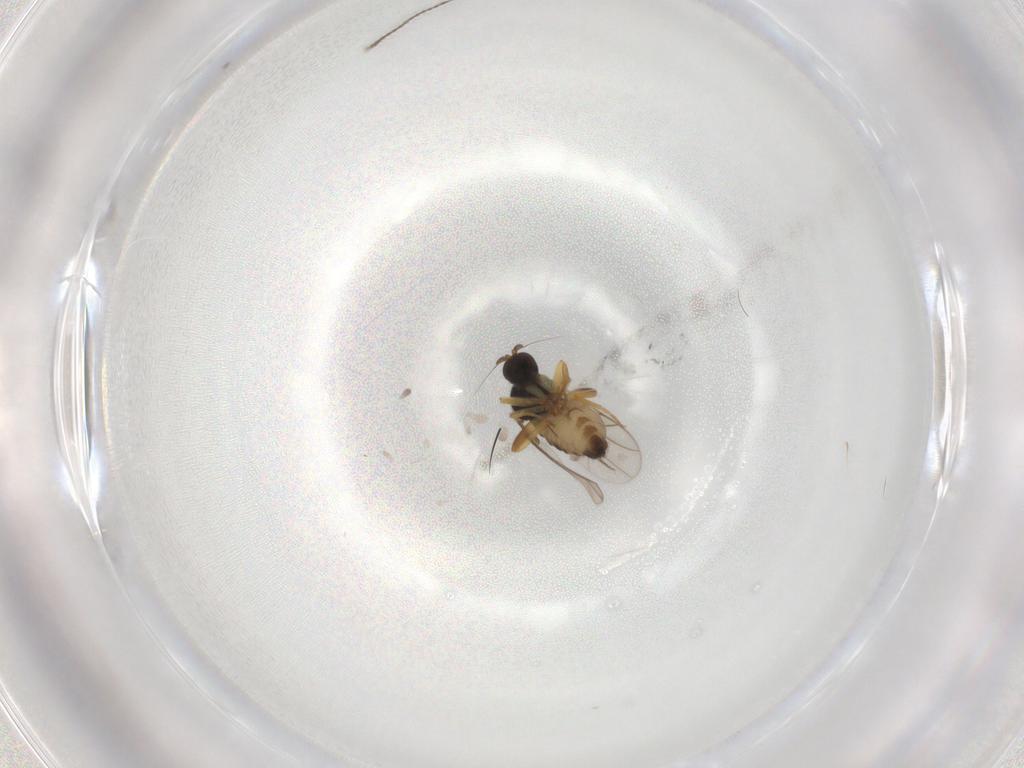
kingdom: Animalia
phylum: Arthropoda
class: Insecta
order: Diptera
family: Hybotidae
